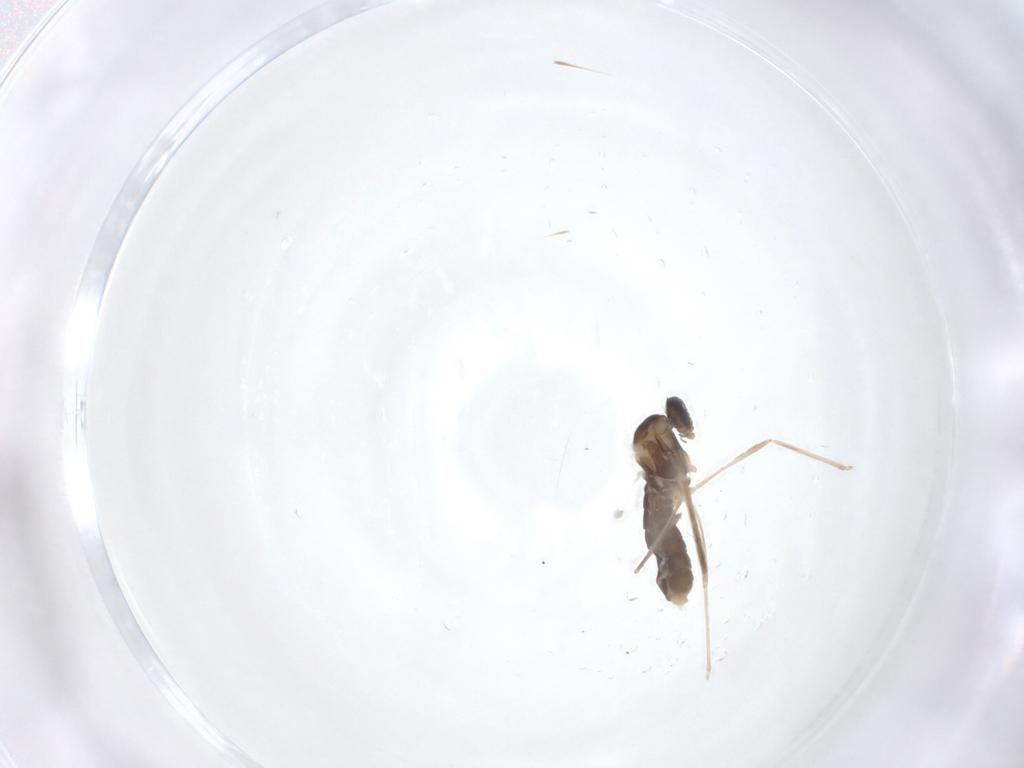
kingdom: Animalia
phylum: Arthropoda
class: Insecta
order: Diptera
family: Cecidomyiidae
